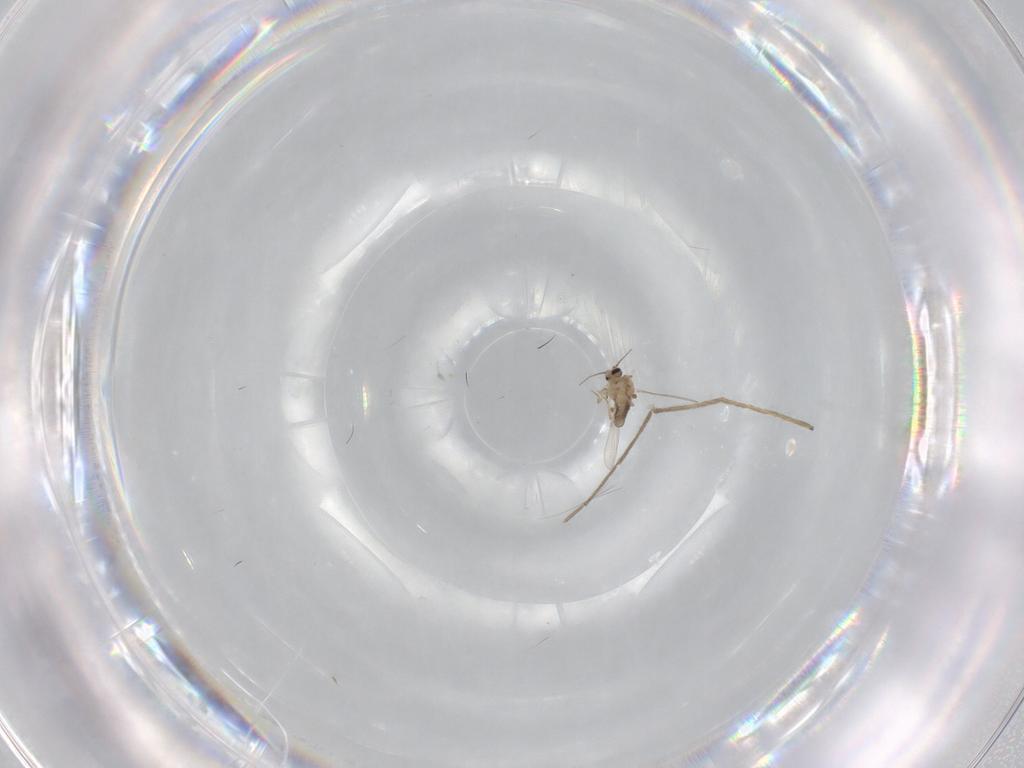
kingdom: Animalia
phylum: Arthropoda
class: Insecta
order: Diptera
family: Chironomidae
